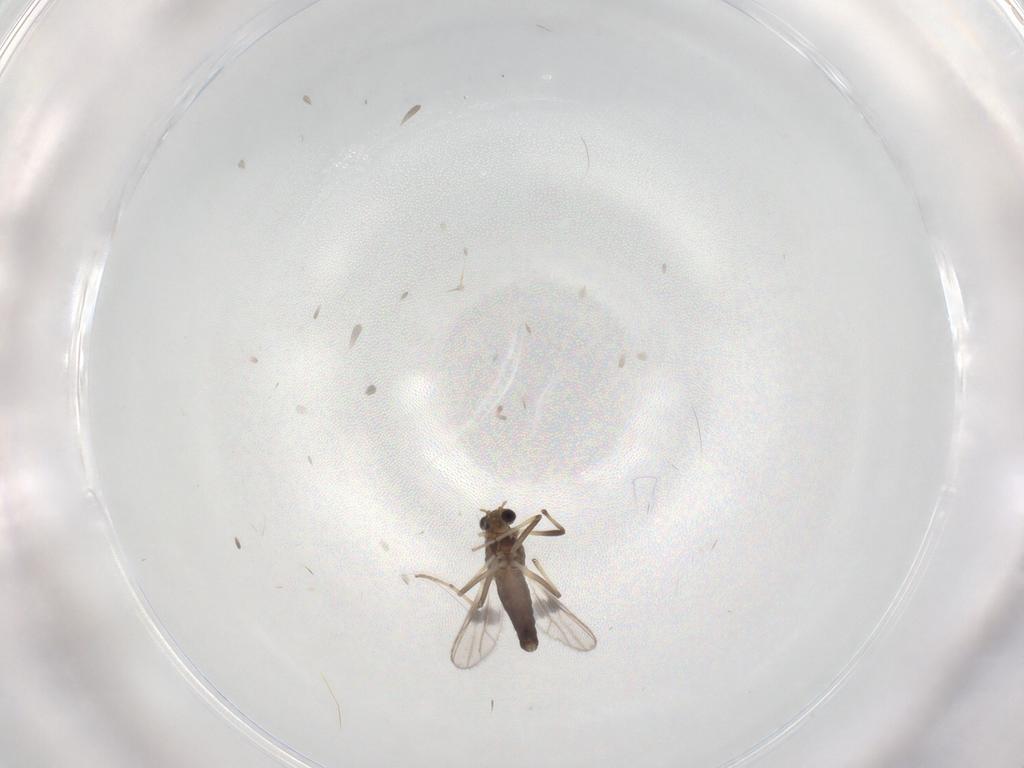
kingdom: Animalia
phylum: Arthropoda
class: Insecta
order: Diptera
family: Chironomidae
